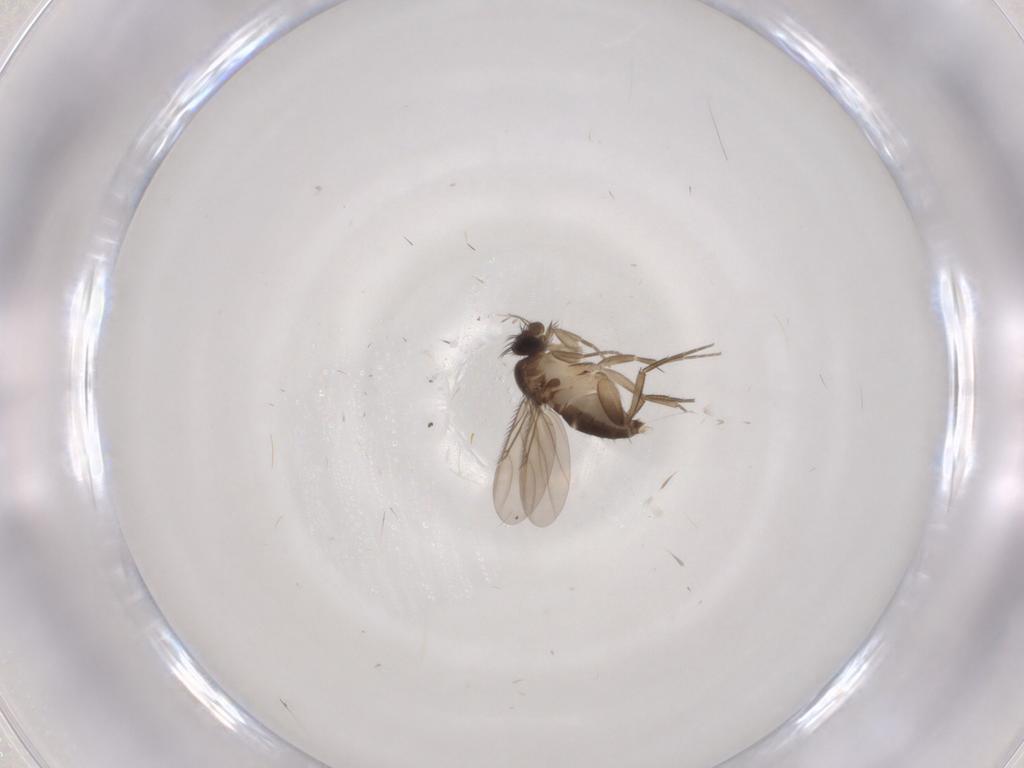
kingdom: Animalia
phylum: Arthropoda
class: Insecta
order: Diptera
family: Phoridae
